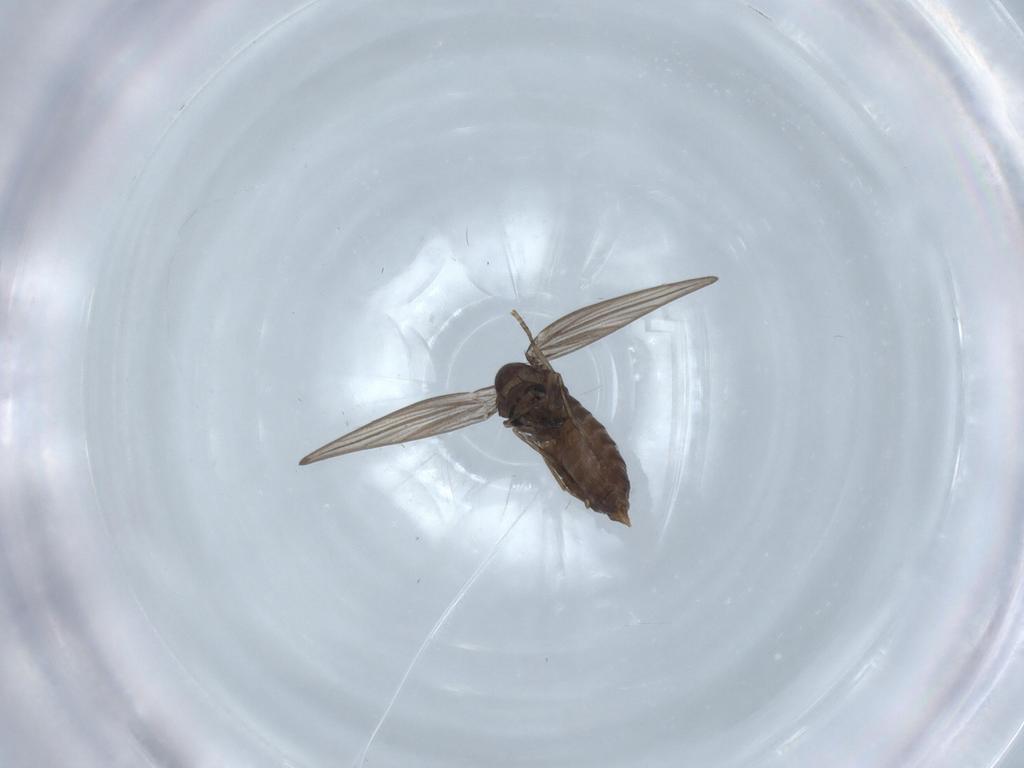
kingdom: Animalia
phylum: Arthropoda
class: Insecta
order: Diptera
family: Psychodidae
